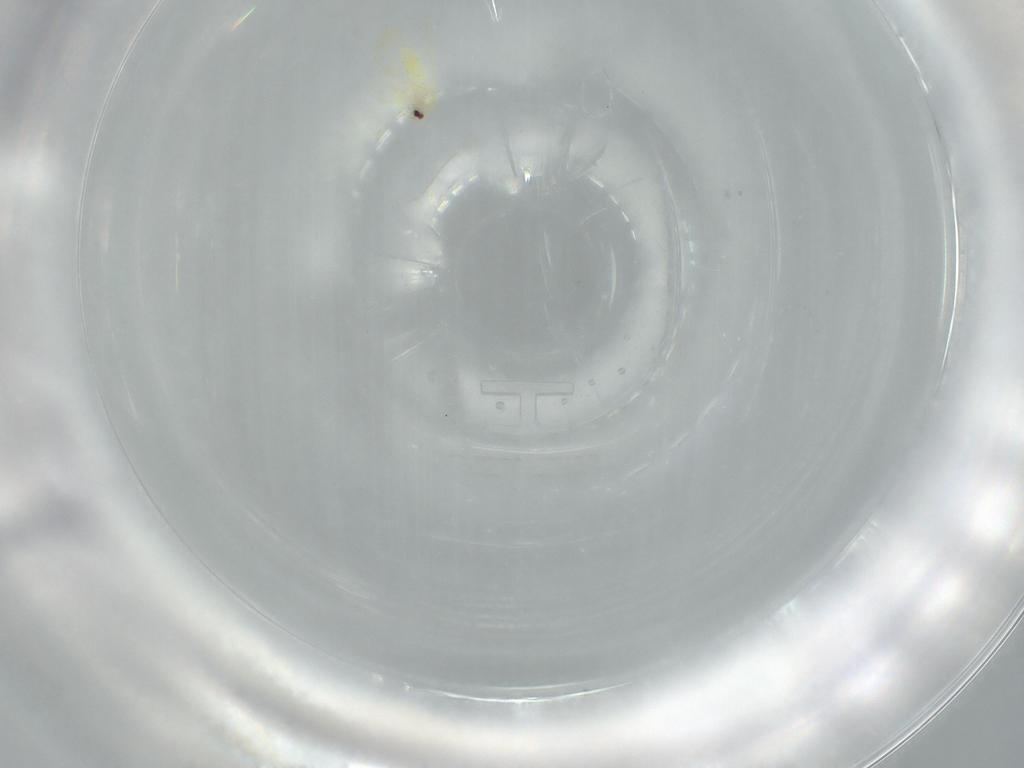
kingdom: Animalia
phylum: Arthropoda
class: Insecta
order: Hemiptera
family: Aleyrodidae
